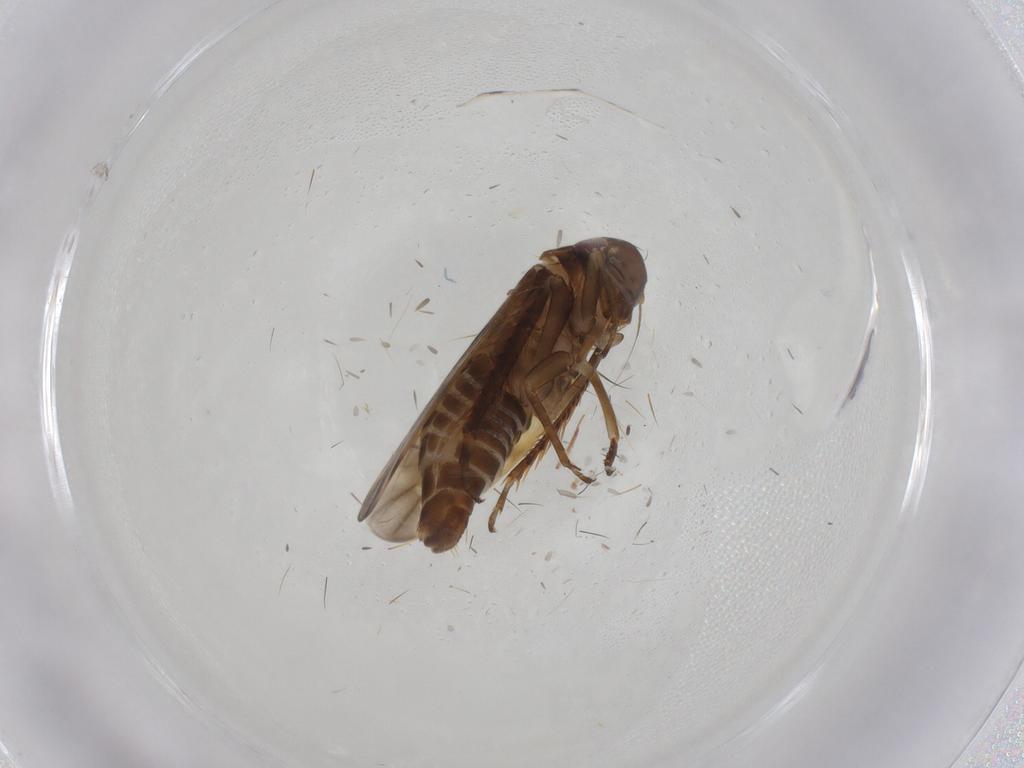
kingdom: Animalia
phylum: Arthropoda
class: Insecta
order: Hemiptera
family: Cicadellidae
